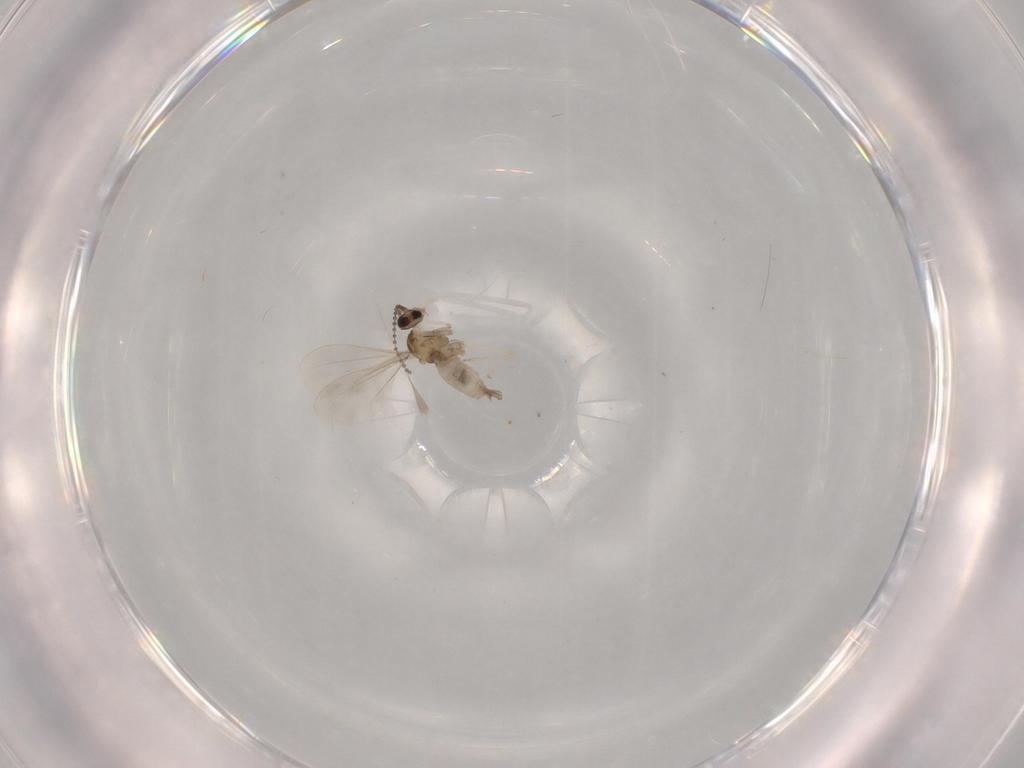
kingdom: Animalia
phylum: Arthropoda
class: Insecta
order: Diptera
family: Cecidomyiidae
